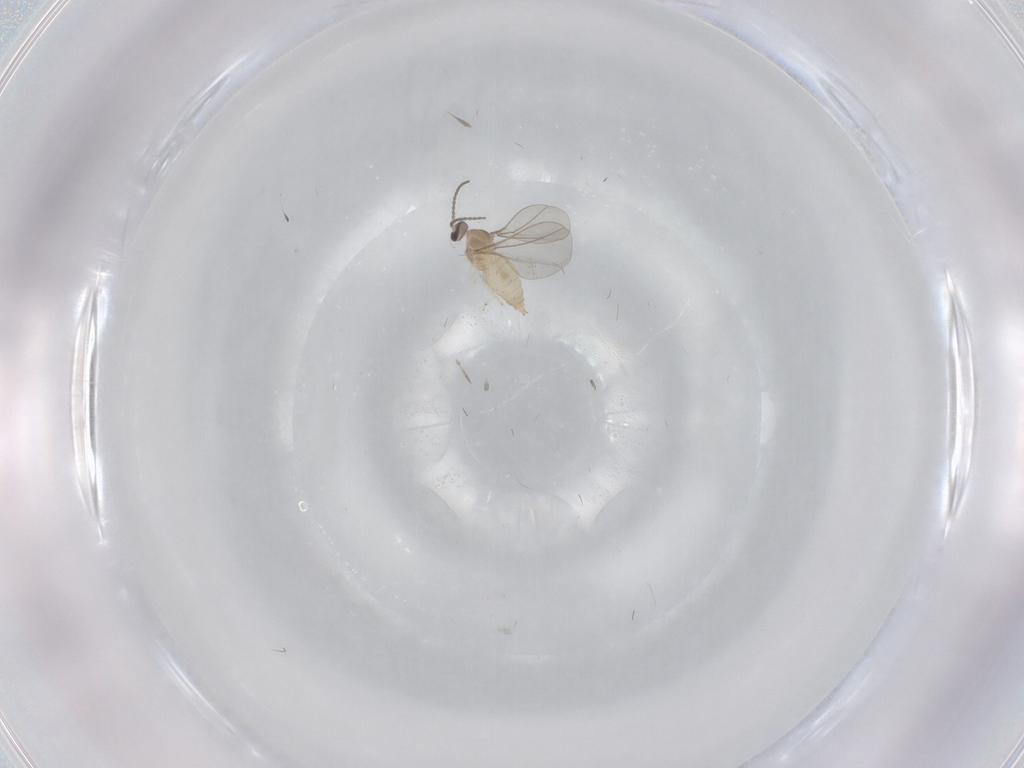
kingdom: Animalia
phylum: Arthropoda
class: Insecta
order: Diptera
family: Cecidomyiidae
